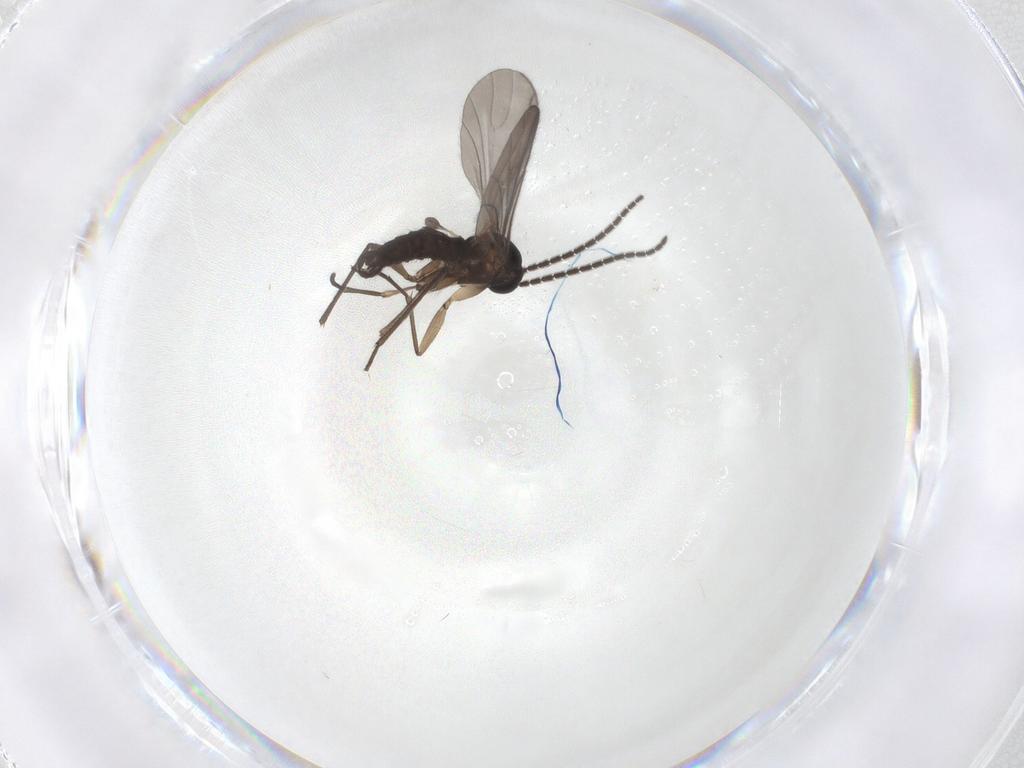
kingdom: Animalia
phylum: Arthropoda
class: Insecta
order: Diptera
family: Sciaridae
